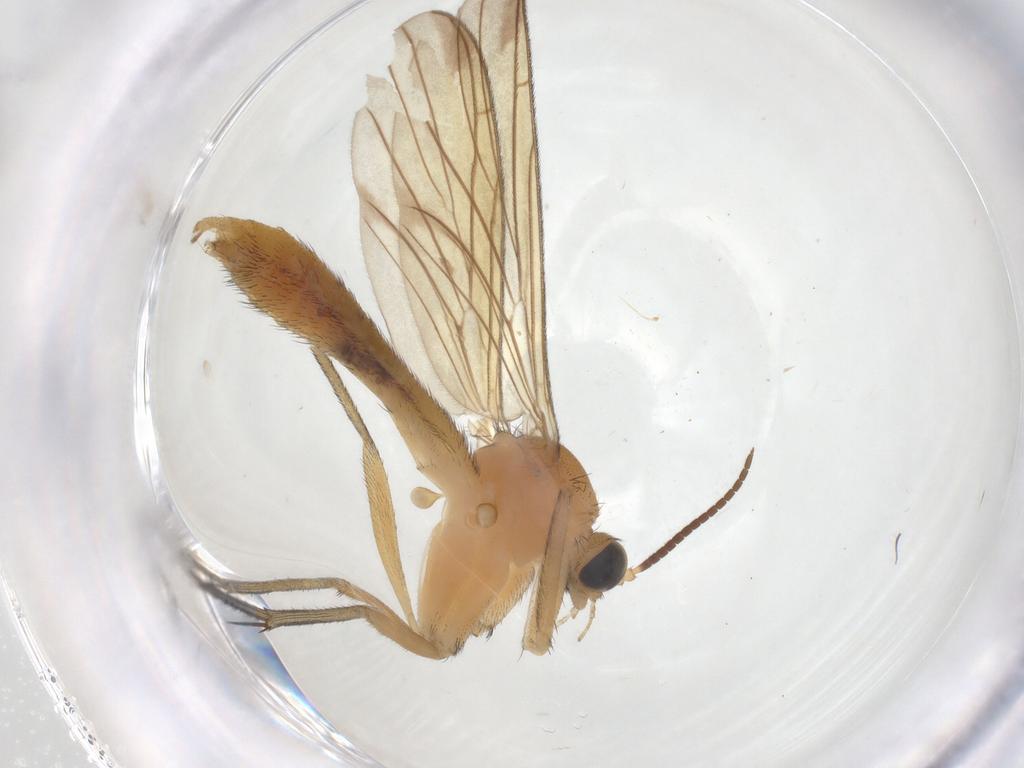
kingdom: Animalia
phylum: Arthropoda
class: Insecta
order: Diptera
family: Keroplatidae
